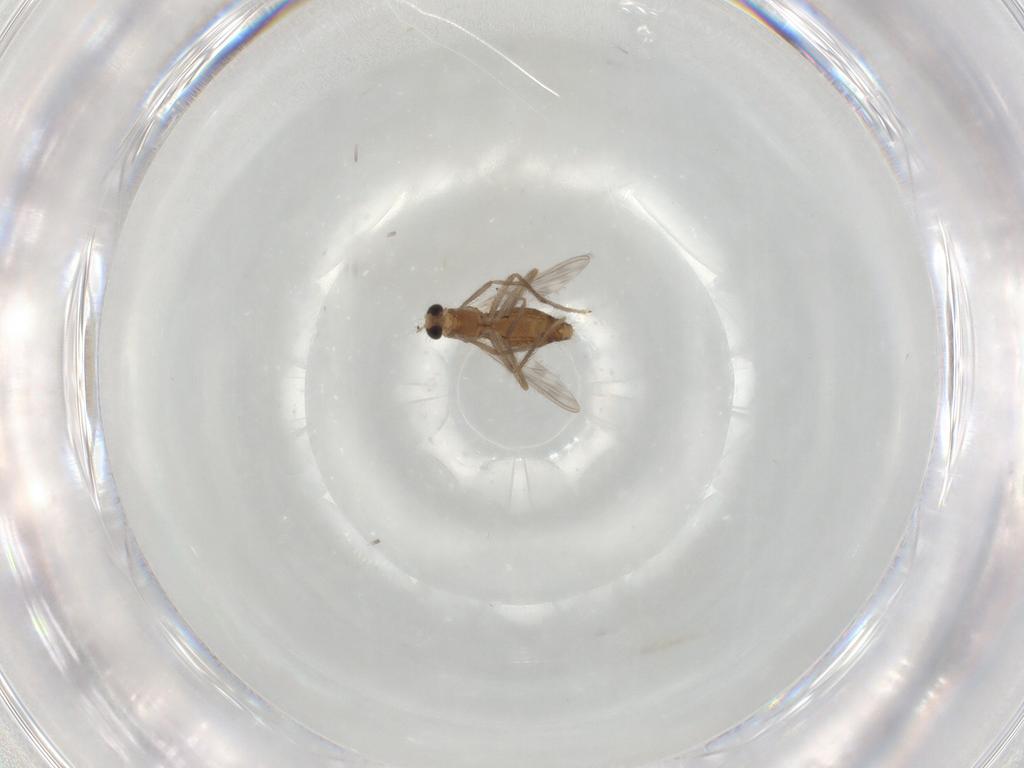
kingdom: Animalia
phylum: Arthropoda
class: Insecta
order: Diptera
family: Chironomidae
